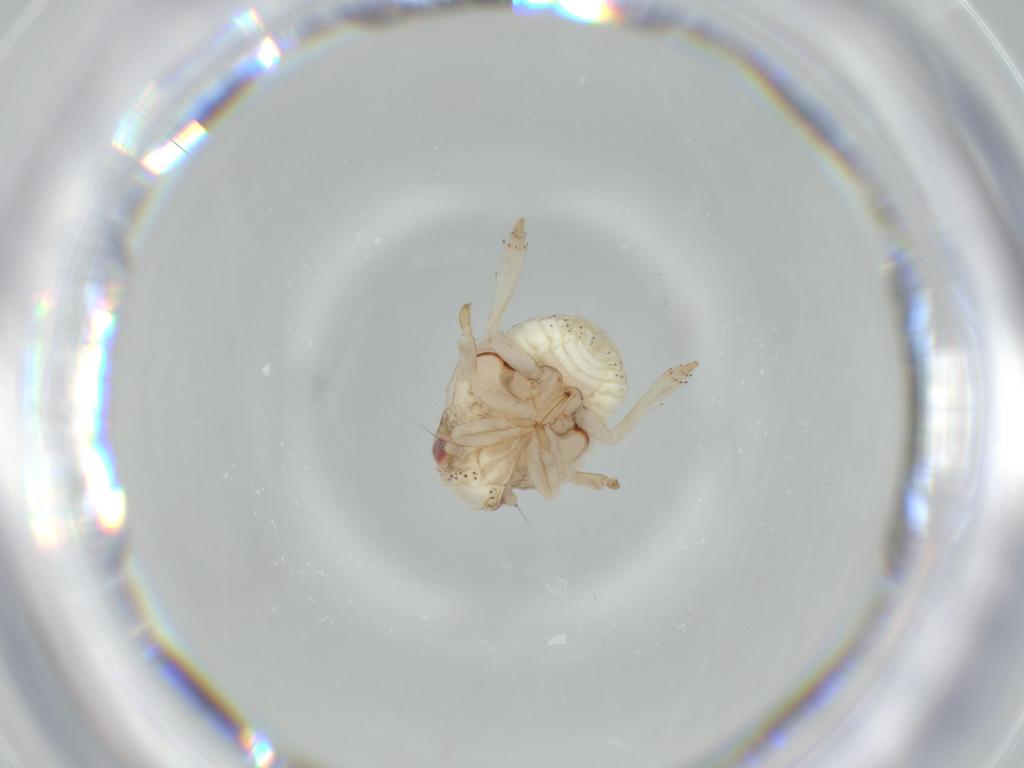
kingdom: Animalia
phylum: Arthropoda
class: Insecta
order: Hemiptera
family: Acanaloniidae
